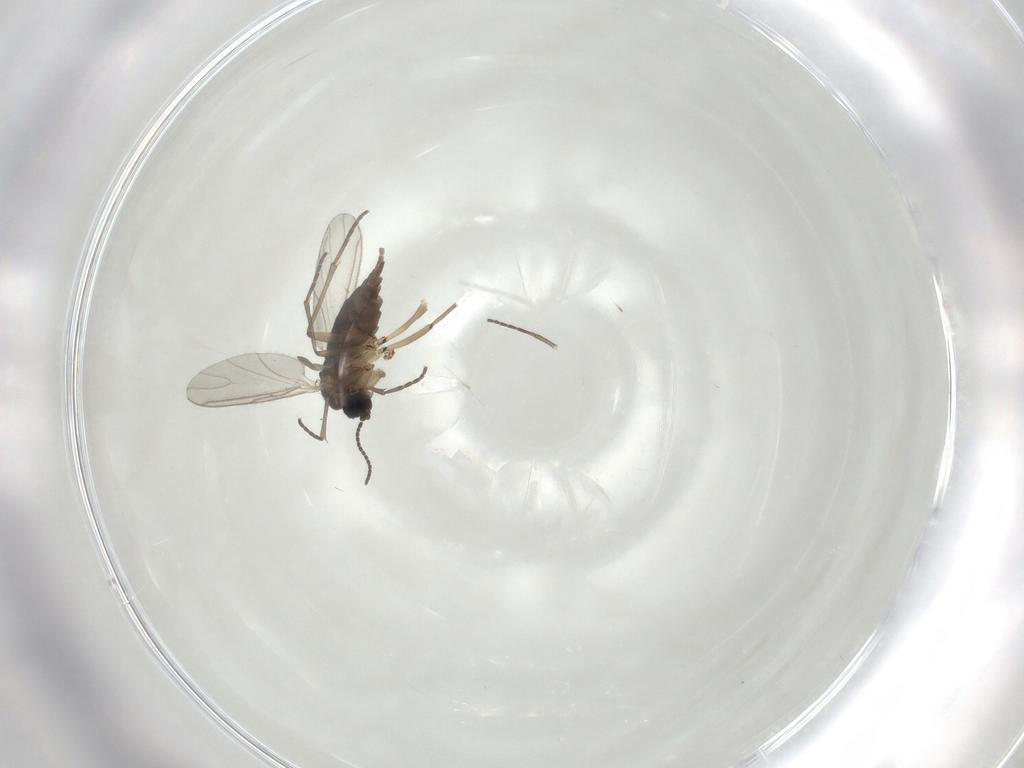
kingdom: Animalia
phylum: Arthropoda
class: Insecta
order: Diptera
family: Sciaridae
